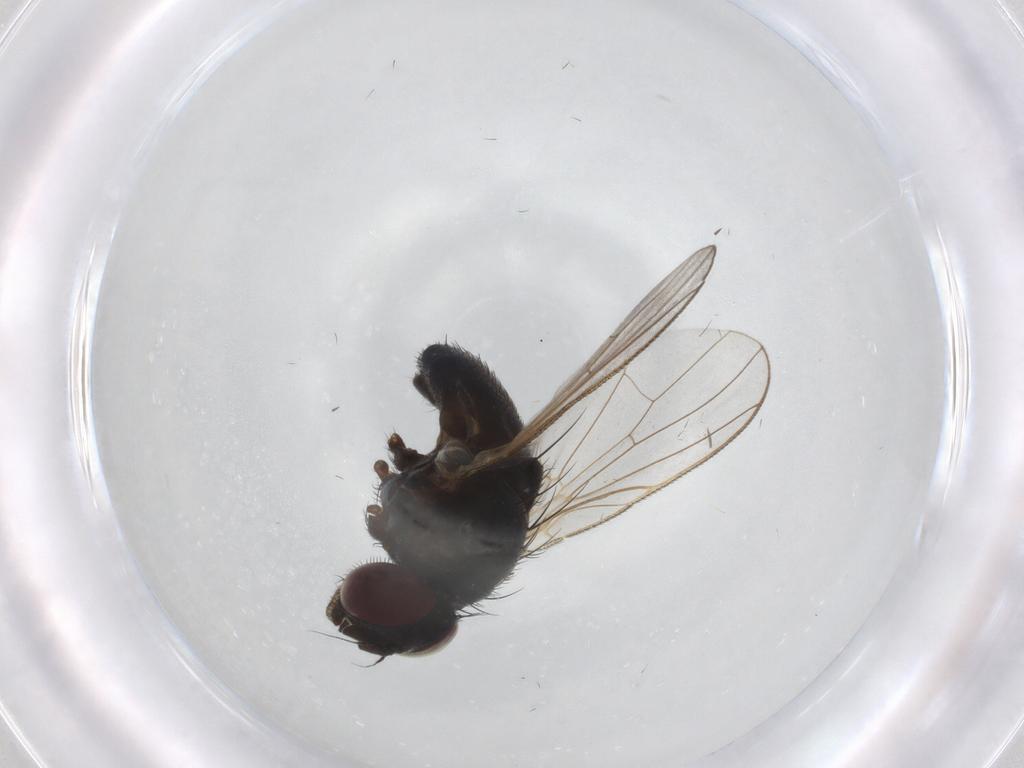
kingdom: Animalia
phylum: Arthropoda
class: Insecta
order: Diptera
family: Fannia
